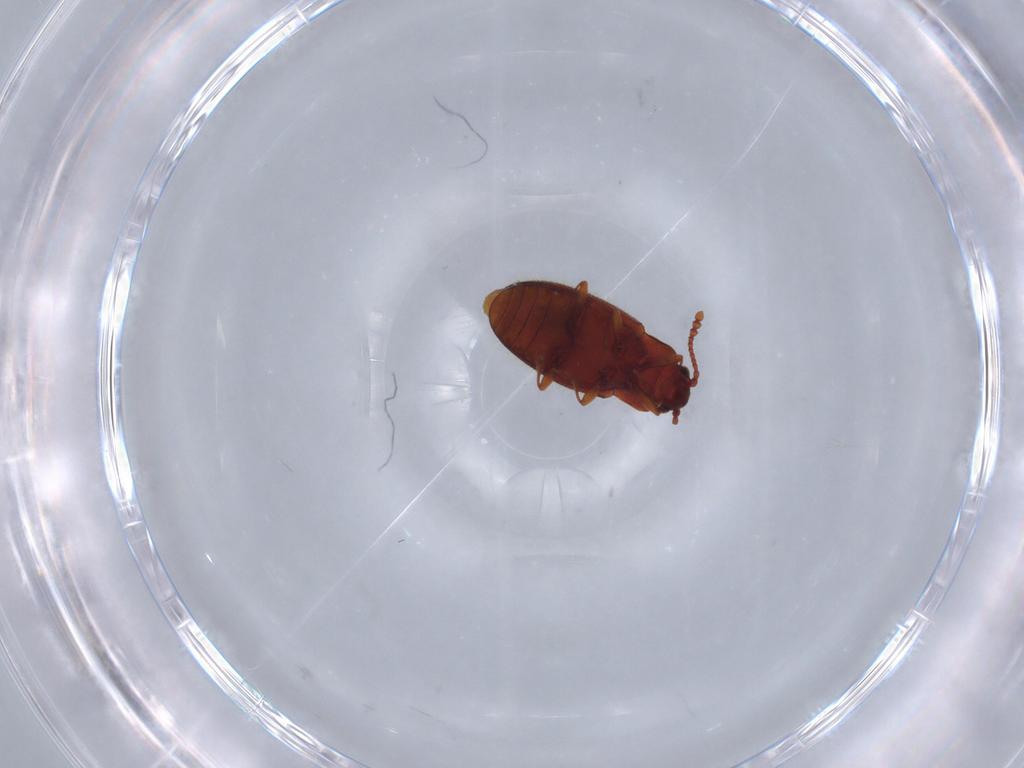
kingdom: Animalia
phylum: Arthropoda
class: Insecta
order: Coleoptera
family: Cryptophagidae
